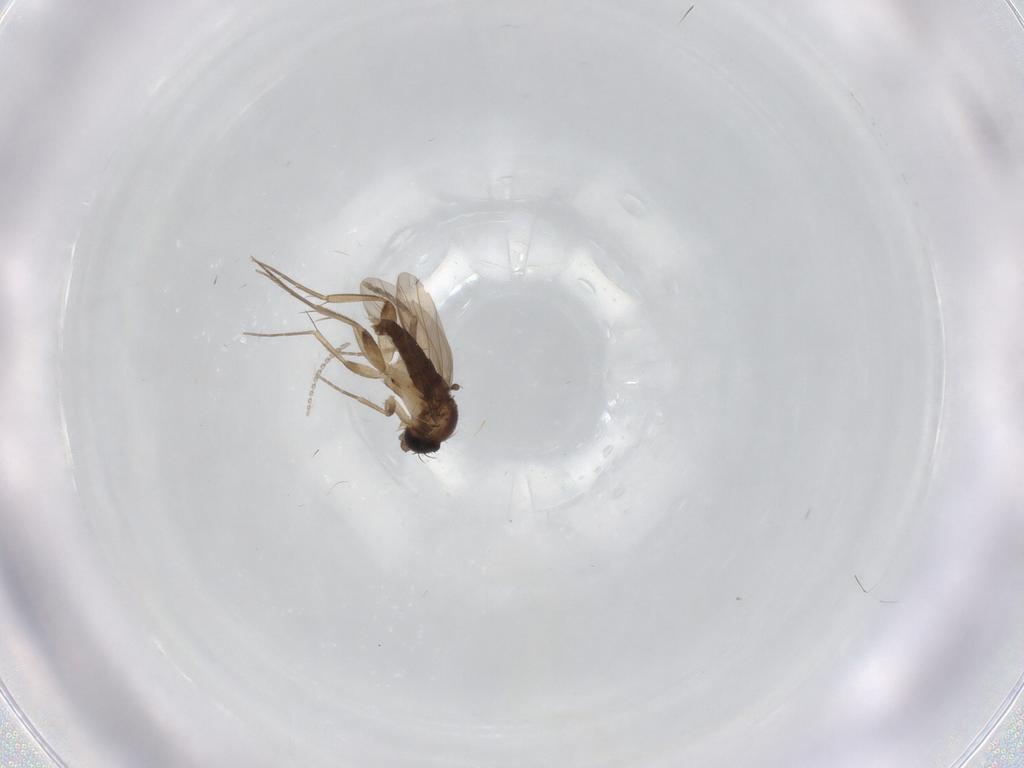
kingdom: Animalia
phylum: Arthropoda
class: Insecta
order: Diptera
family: Phoridae
